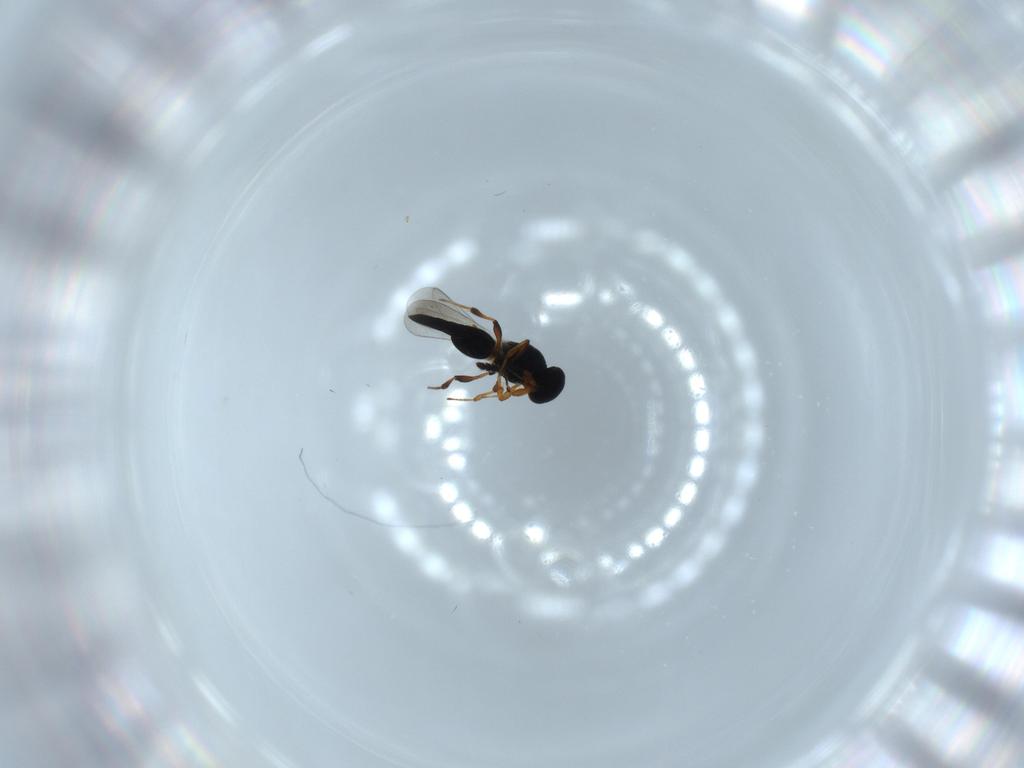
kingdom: Animalia
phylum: Arthropoda
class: Insecta
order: Hymenoptera
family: Platygastridae
